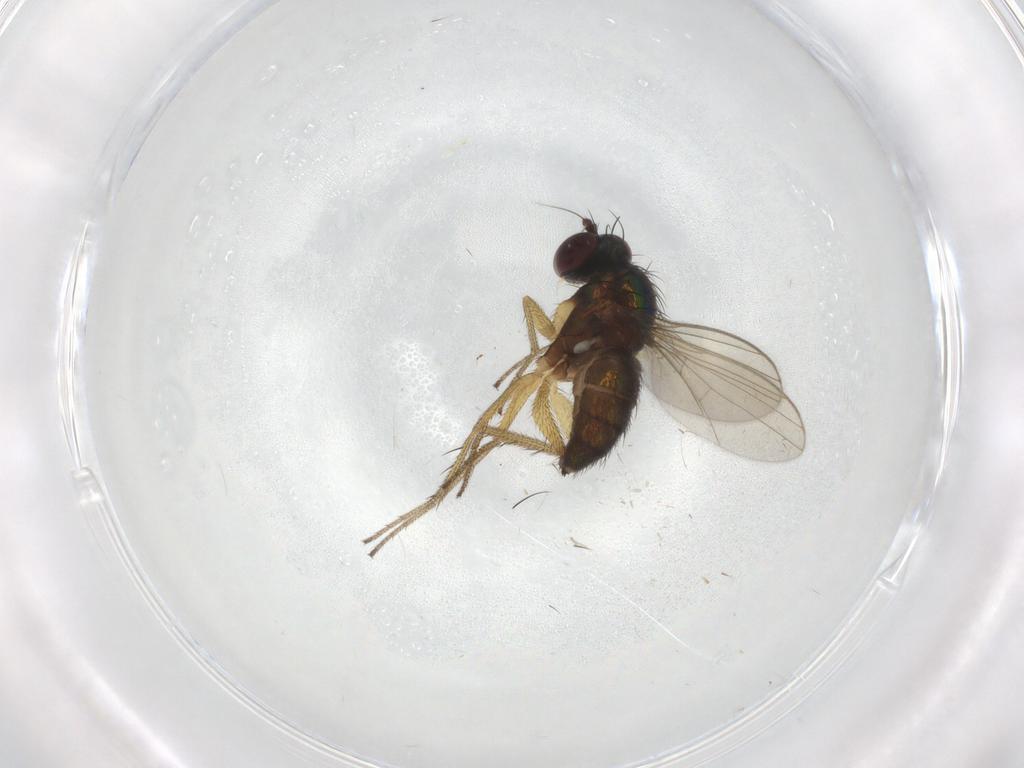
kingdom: Animalia
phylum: Arthropoda
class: Insecta
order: Diptera
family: Dolichopodidae
